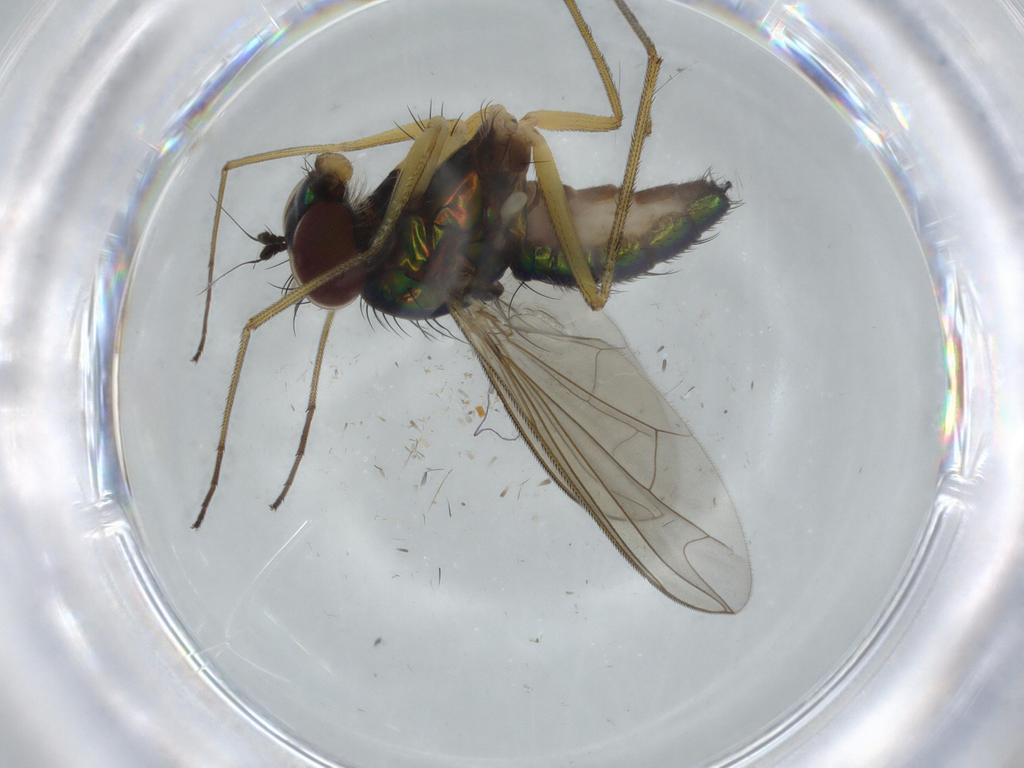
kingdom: Animalia
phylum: Arthropoda
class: Insecta
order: Diptera
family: Dolichopodidae
